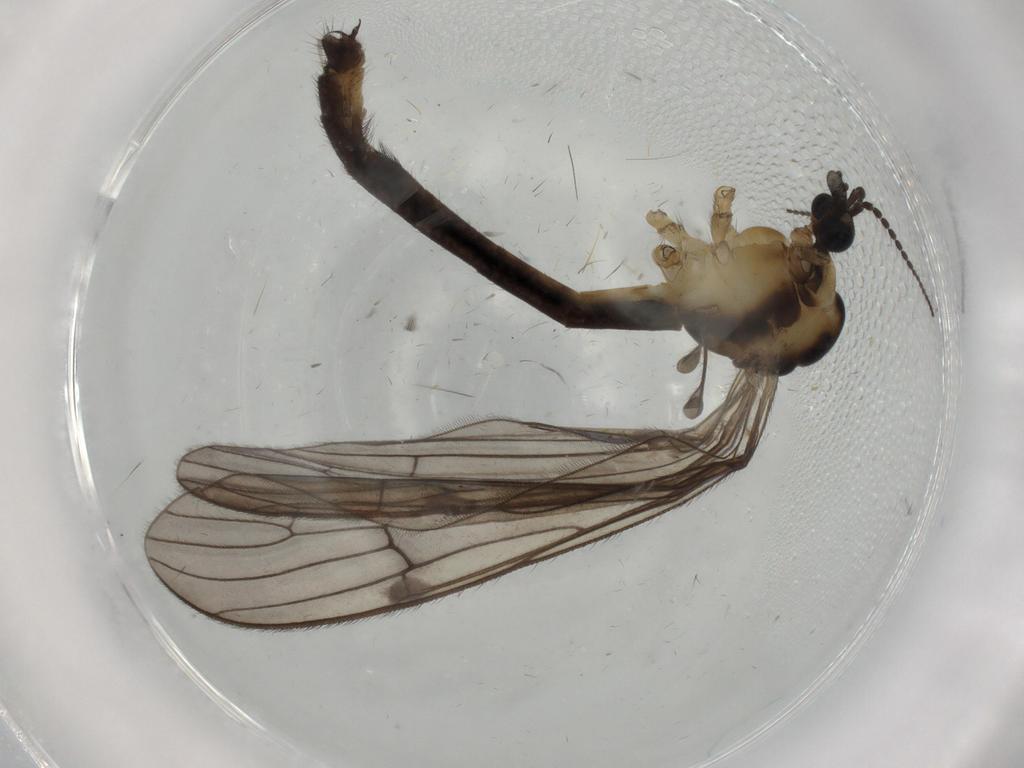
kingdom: Animalia
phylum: Arthropoda
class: Insecta
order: Diptera
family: Limoniidae
